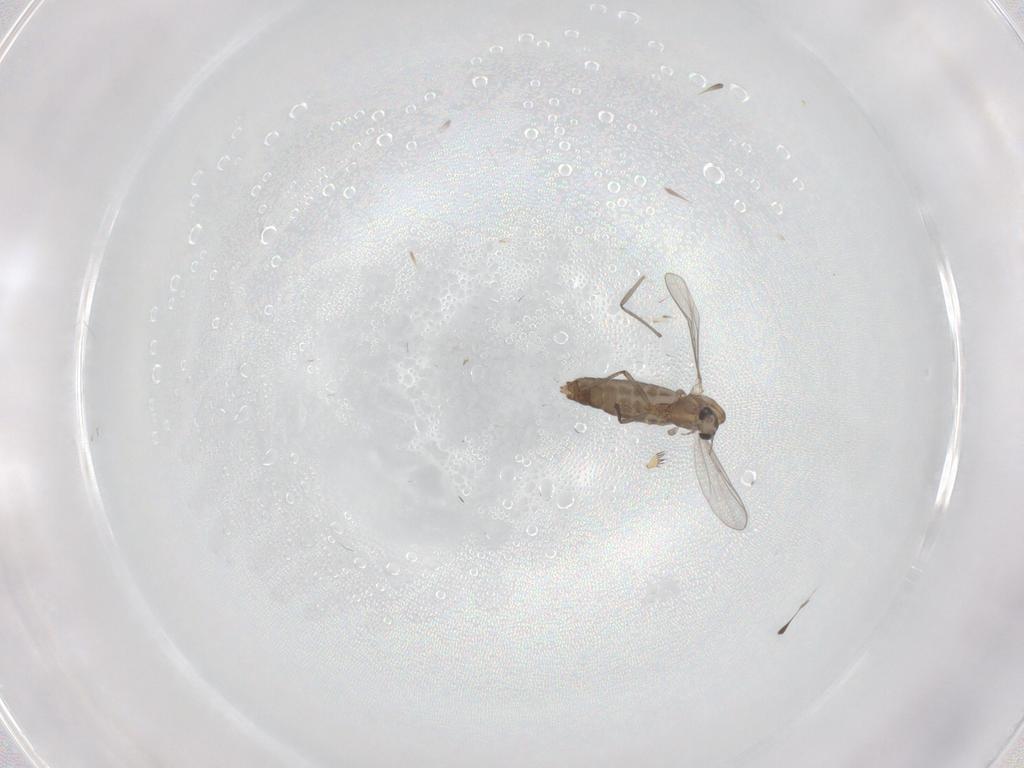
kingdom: Animalia
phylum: Arthropoda
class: Insecta
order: Diptera
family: Chironomidae
